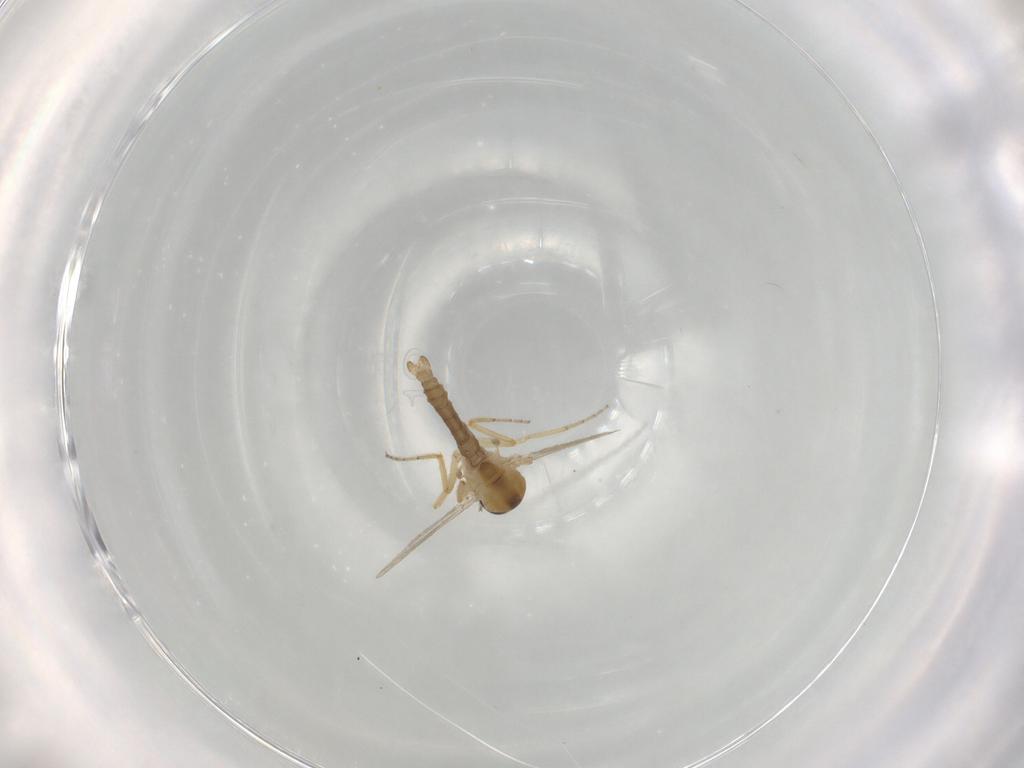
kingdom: Animalia
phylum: Arthropoda
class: Insecta
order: Diptera
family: Ceratopogonidae
